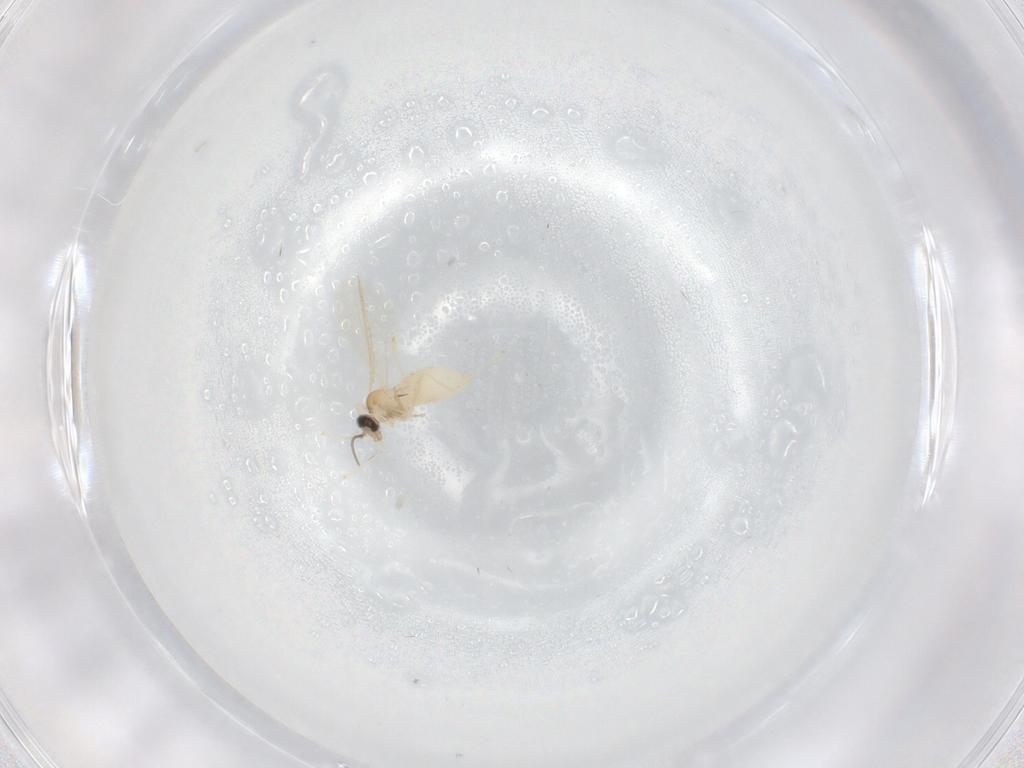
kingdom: Animalia
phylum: Arthropoda
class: Insecta
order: Diptera
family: Cecidomyiidae
